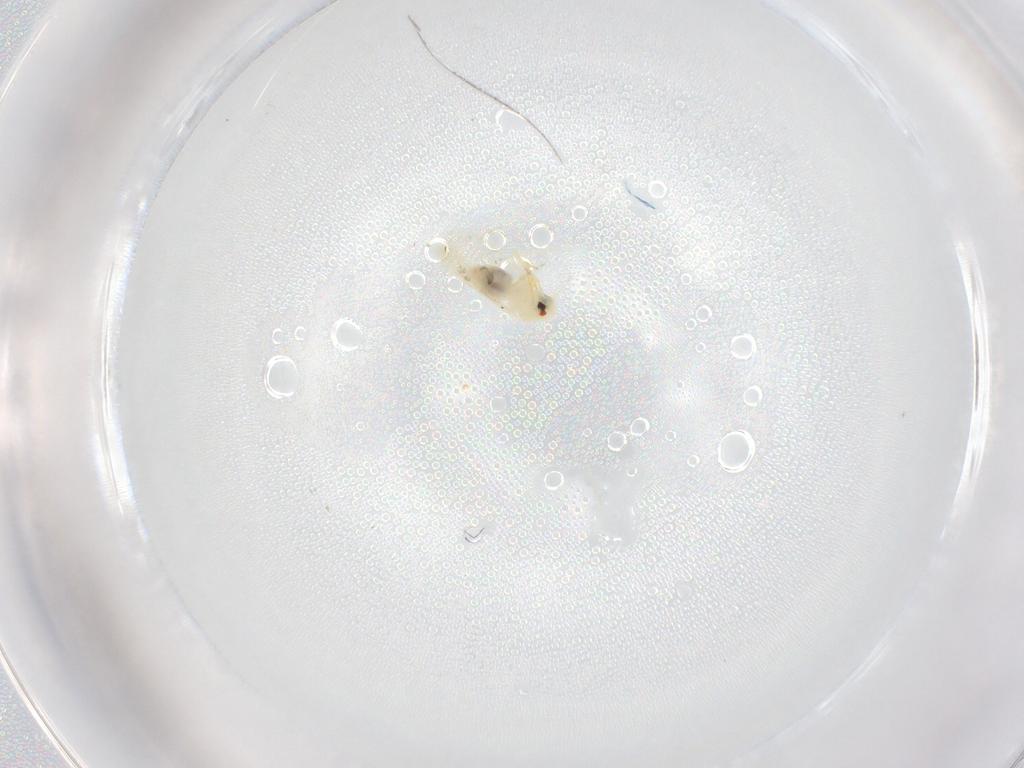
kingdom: Animalia
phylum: Arthropoda
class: Insecta
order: Hemiptera
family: Aleyrodidae
